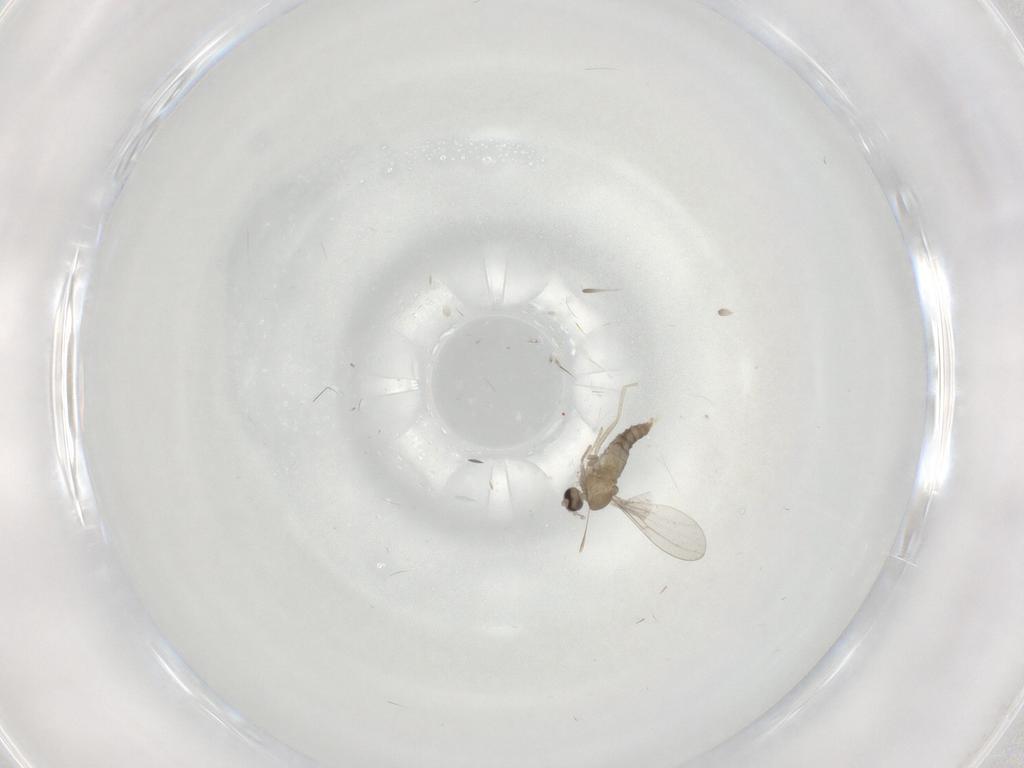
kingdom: Animalia
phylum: Arthropoda
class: Insecta
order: Diptera
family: Cecidomyiidae
